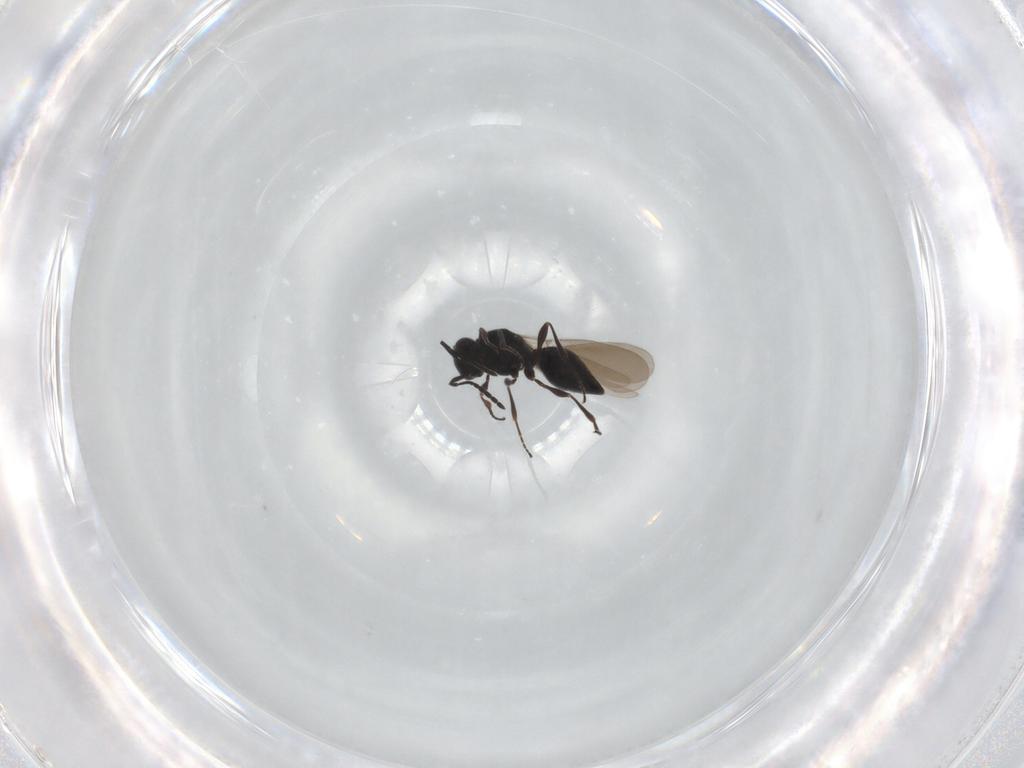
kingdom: Animalia
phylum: Arthropoda
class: Insecta
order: Hymenoptera
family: Platygastridae
